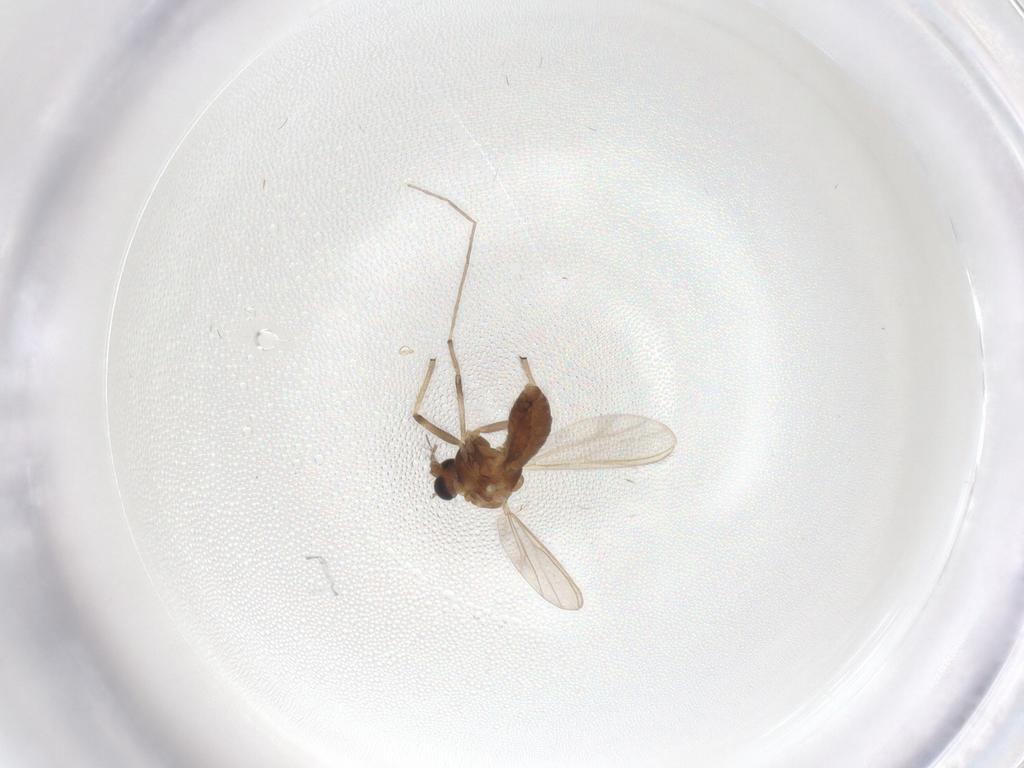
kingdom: Animalia
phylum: Arthropoda
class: Insecta
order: Diptera
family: Chironomidae
